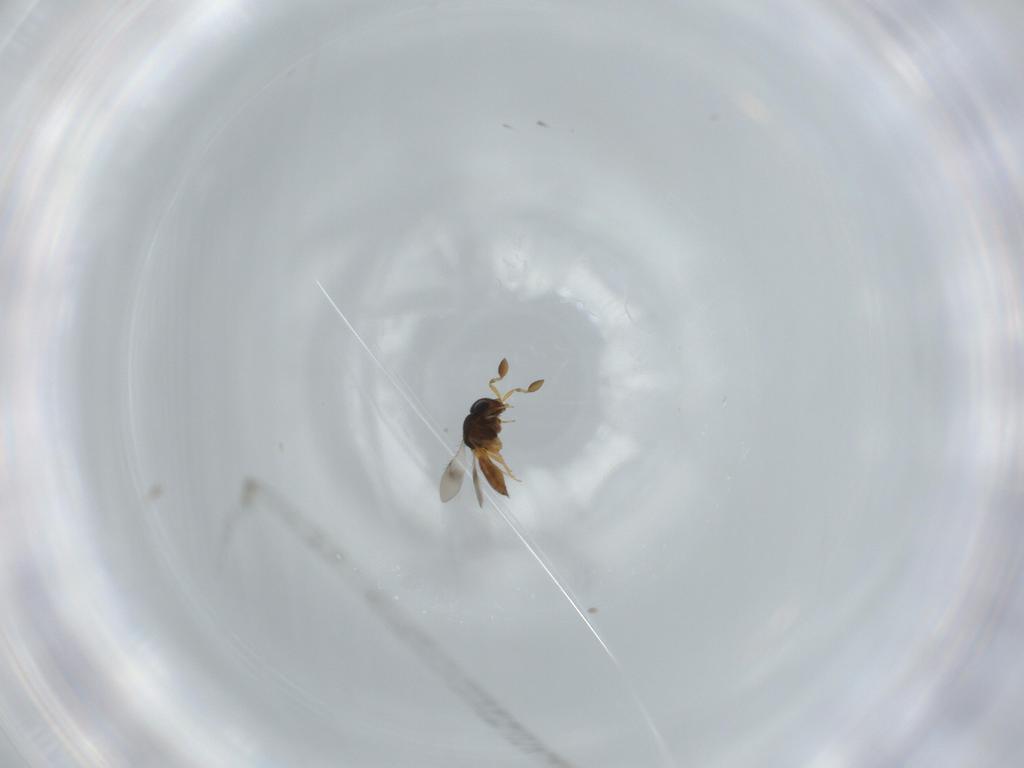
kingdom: Animalia
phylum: Arthropoda
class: Insecta
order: Hymenoptera
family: Scelionidae
